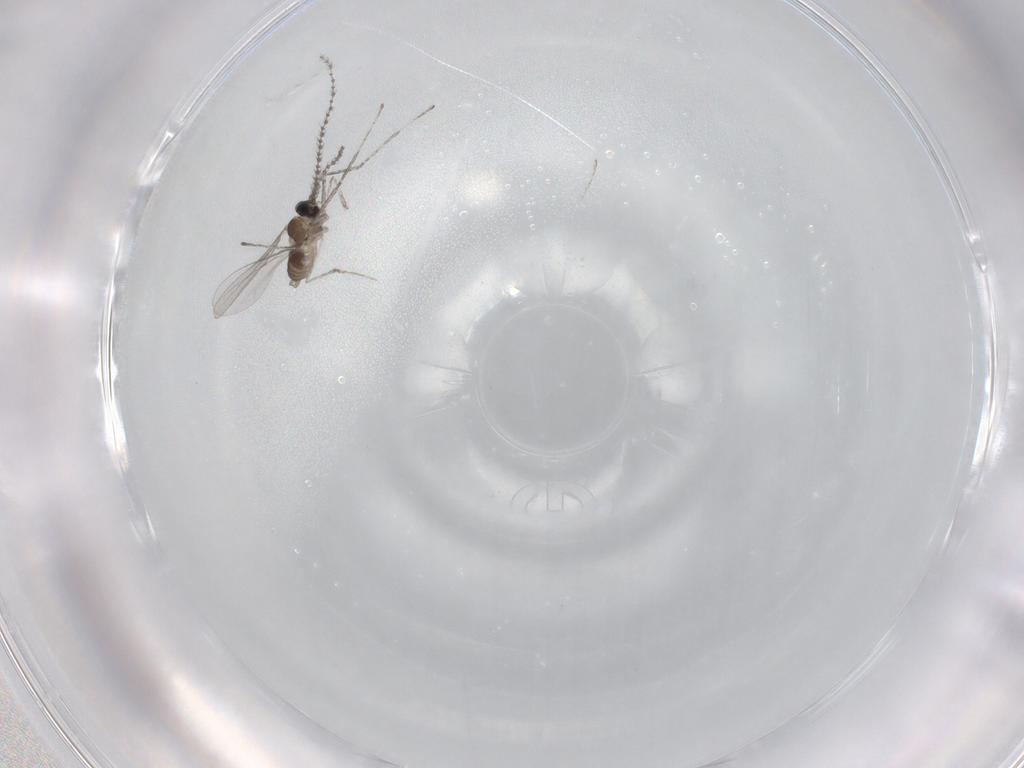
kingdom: Animalia
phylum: Arthropoda
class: Insecta
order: Diptera
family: Cecidomyiidae
